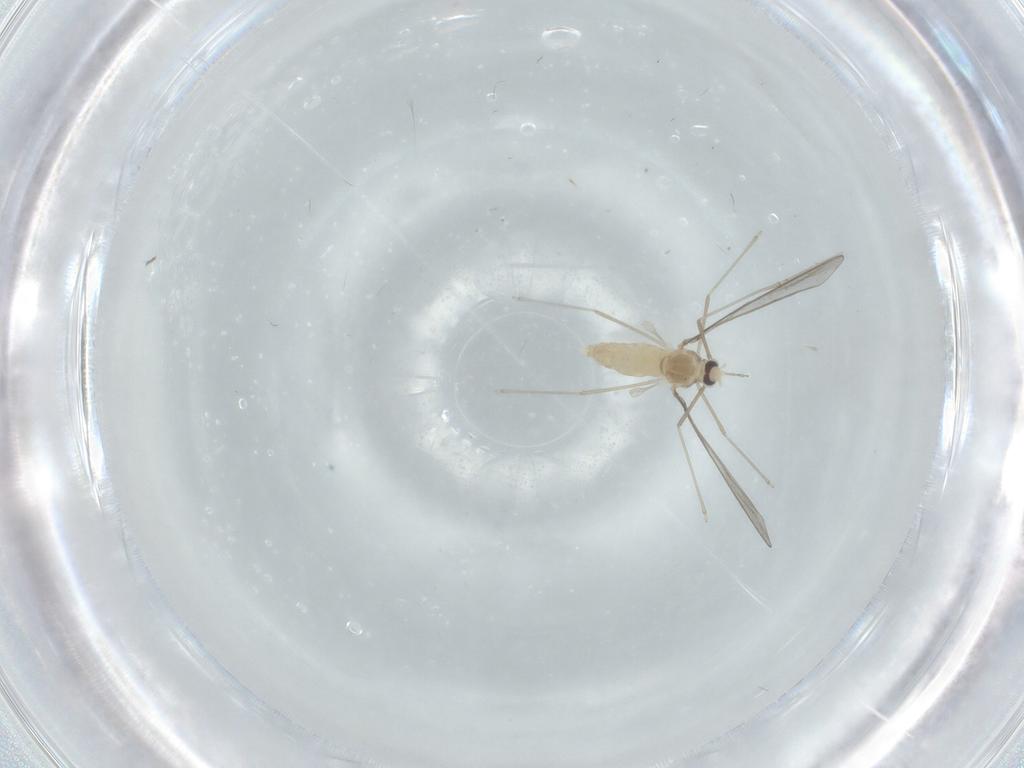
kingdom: Animalia
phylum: Arthropoda
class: Insecta
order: Diptera
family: Cecidomyiidae
